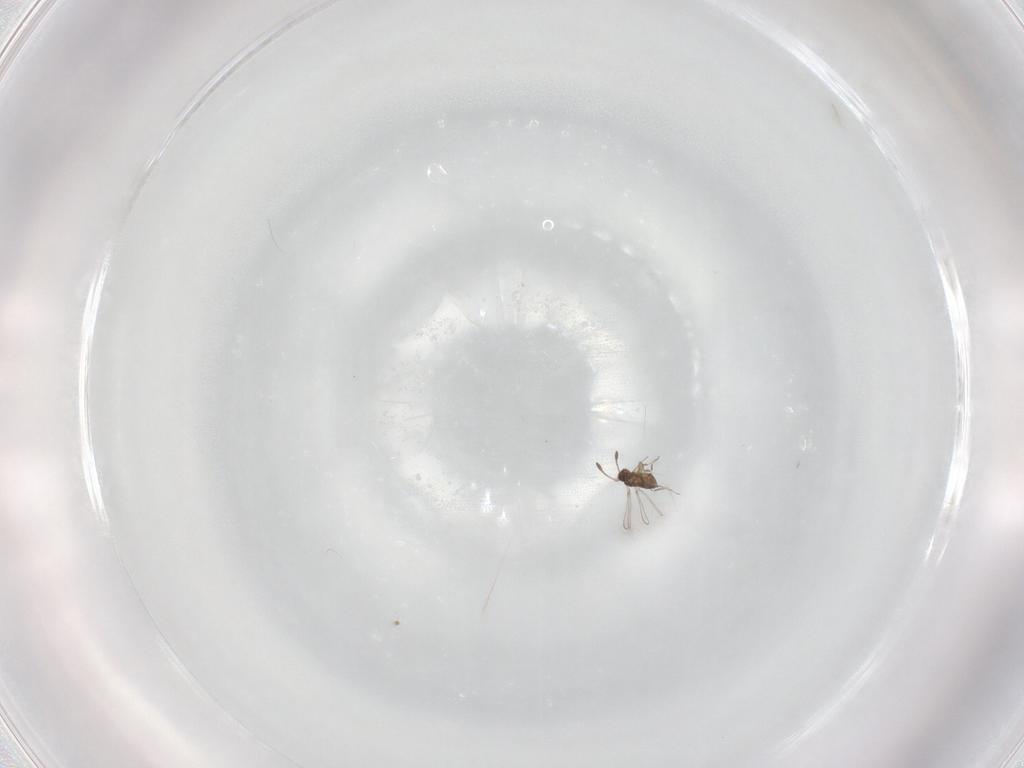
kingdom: Animalia
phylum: Arthropoda
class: Insecta
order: Hymenoptera
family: Mymaridae
